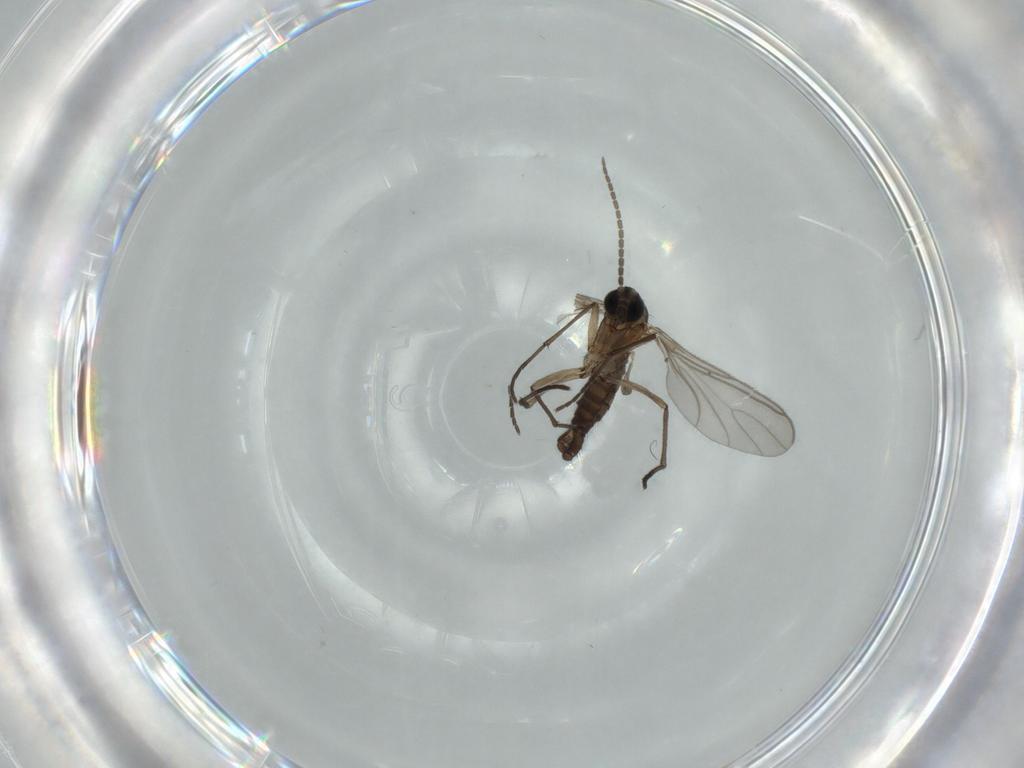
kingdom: Animalia
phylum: Arthropoda
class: Insecta
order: Diptera
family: Sciaridae
